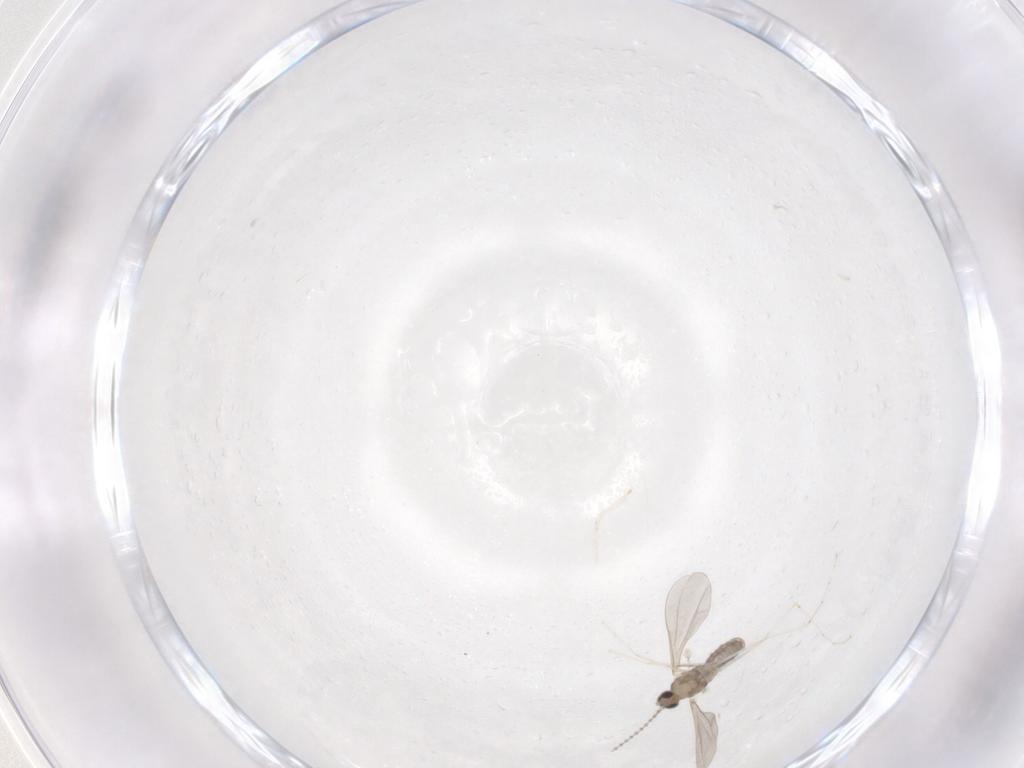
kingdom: Animalia
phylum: Arthropoda
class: Insecta
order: Diptera
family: Cecidomyiidae
